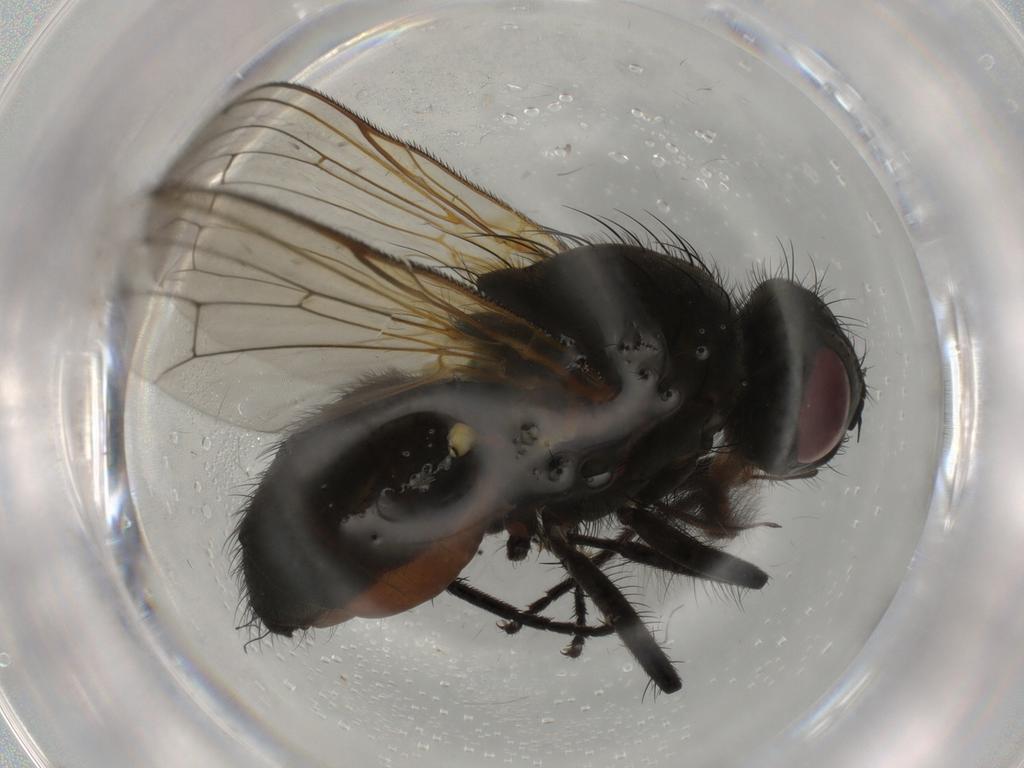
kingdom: Animalia
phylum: Arthropoda
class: Insecta
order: Diptera
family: Anthomyiidae
